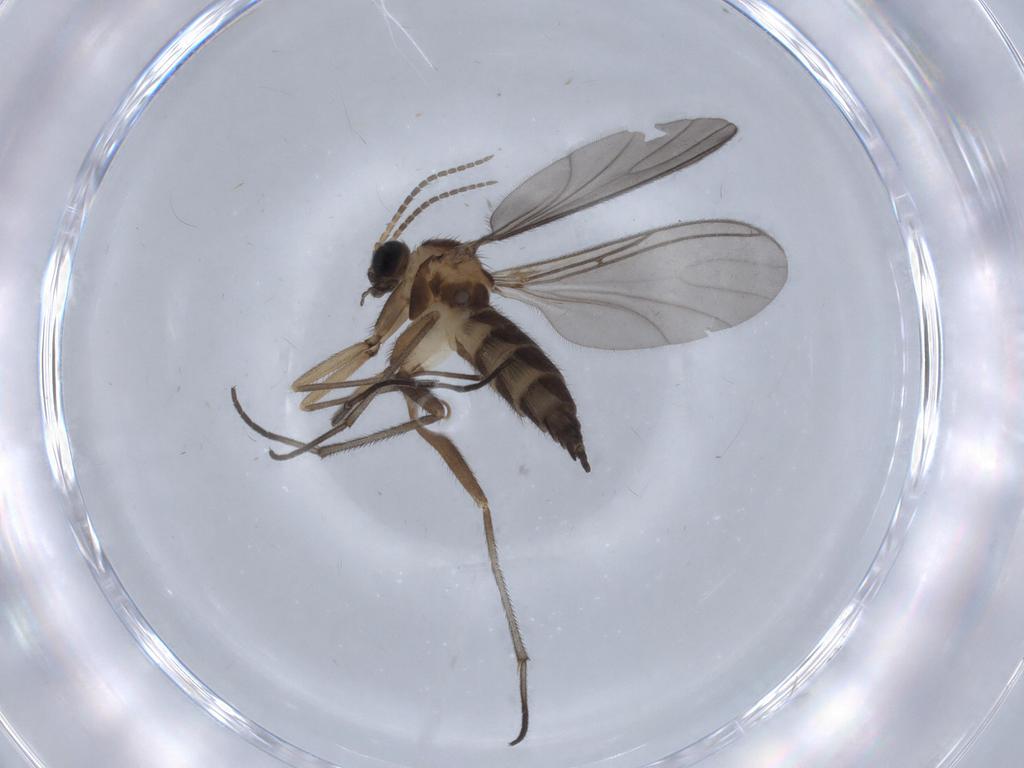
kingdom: Animalia
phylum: Arthropoda
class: Insecta
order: Diptera
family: Sciaridae
